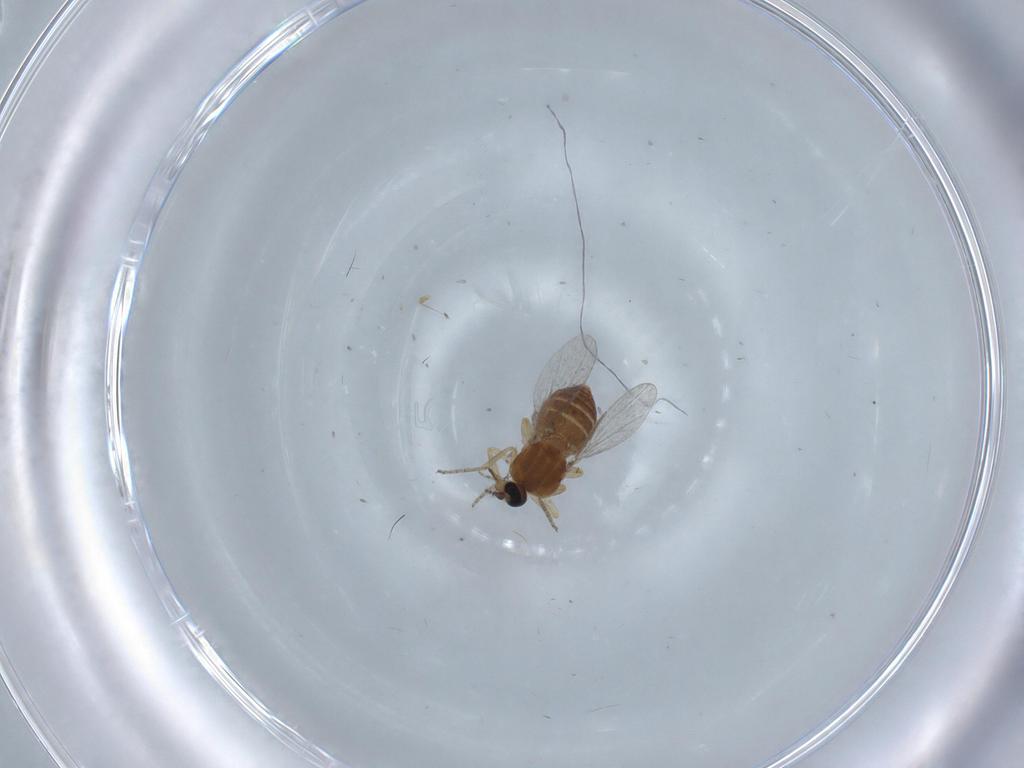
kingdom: Animalia
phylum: Arthropoda
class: Insecta
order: Diptera
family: Ceratopogonidae
